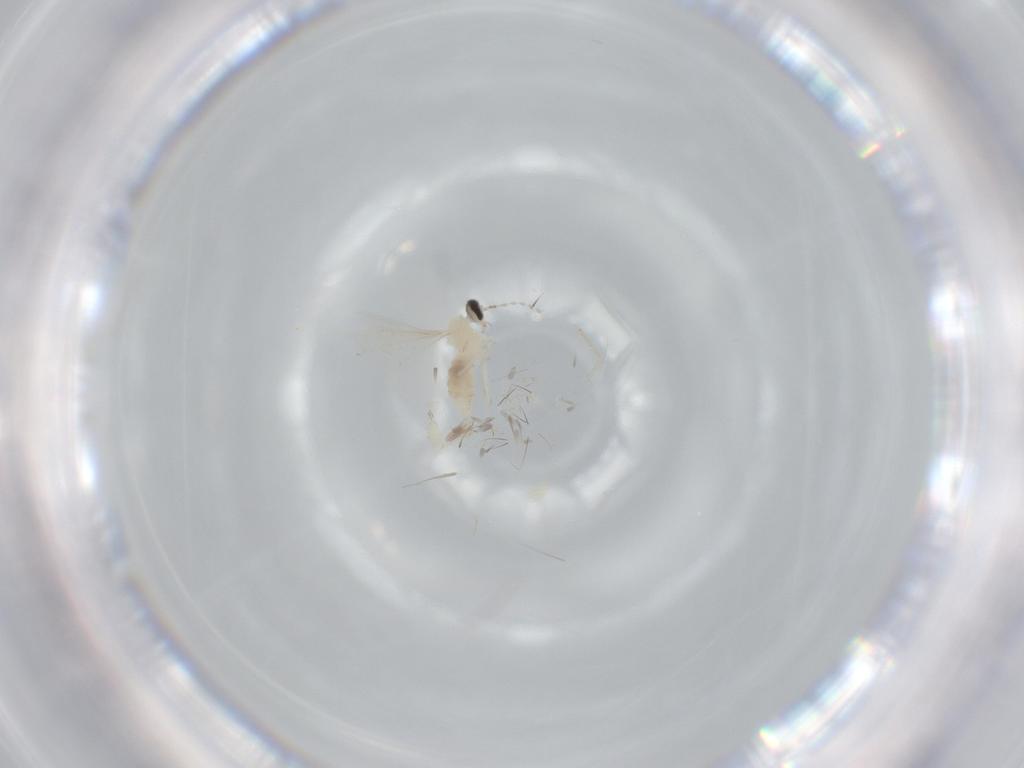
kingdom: Animalia
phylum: Arthropoda
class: Insecta
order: Diptera
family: Cecidomyiidae
